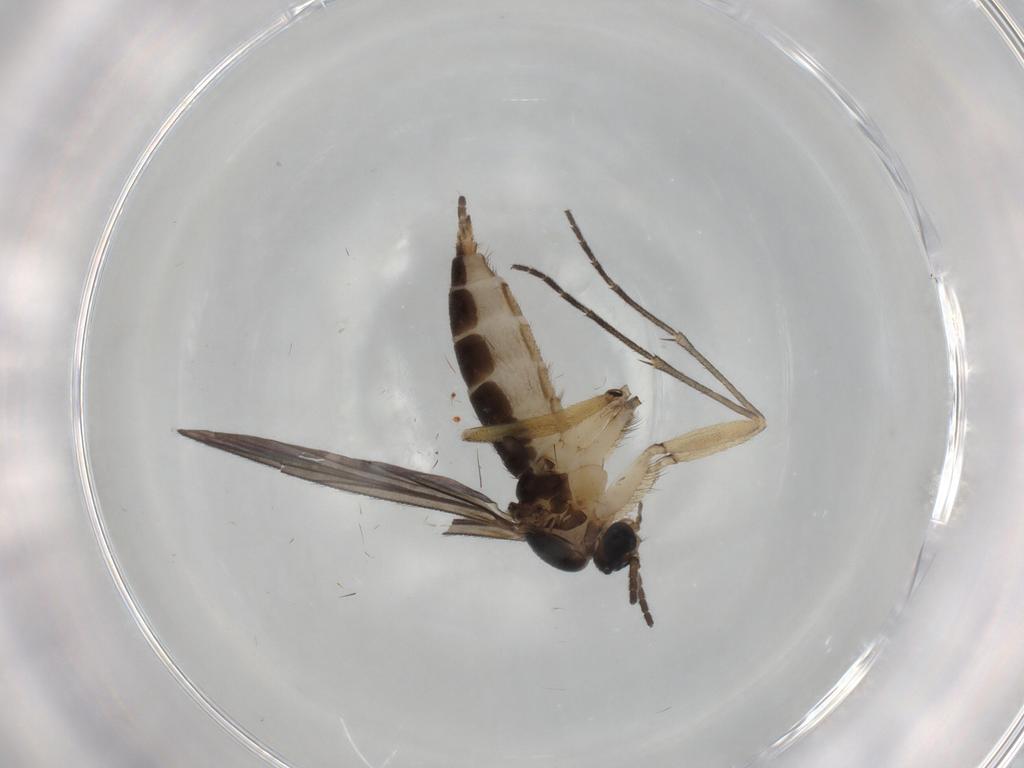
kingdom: Animalia
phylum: Arthropoda
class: Insecta
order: Diptera
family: Sciaridae
